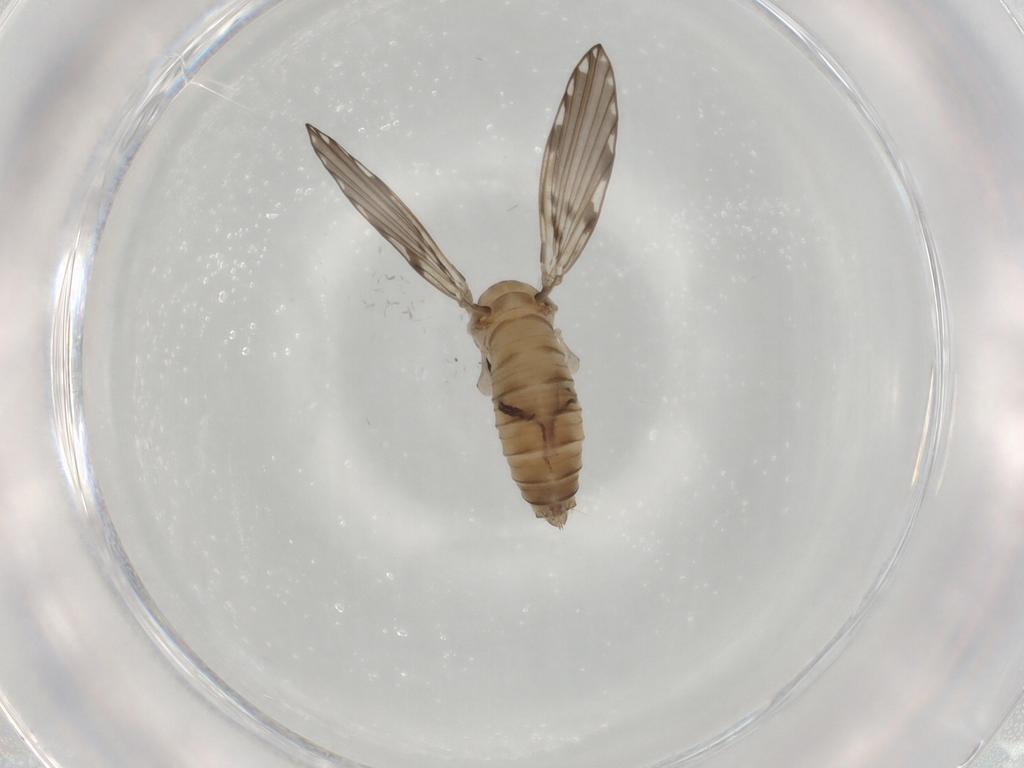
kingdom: Animalia
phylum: Arthropoda
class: Insecta
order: Diptera
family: Psychodidae
